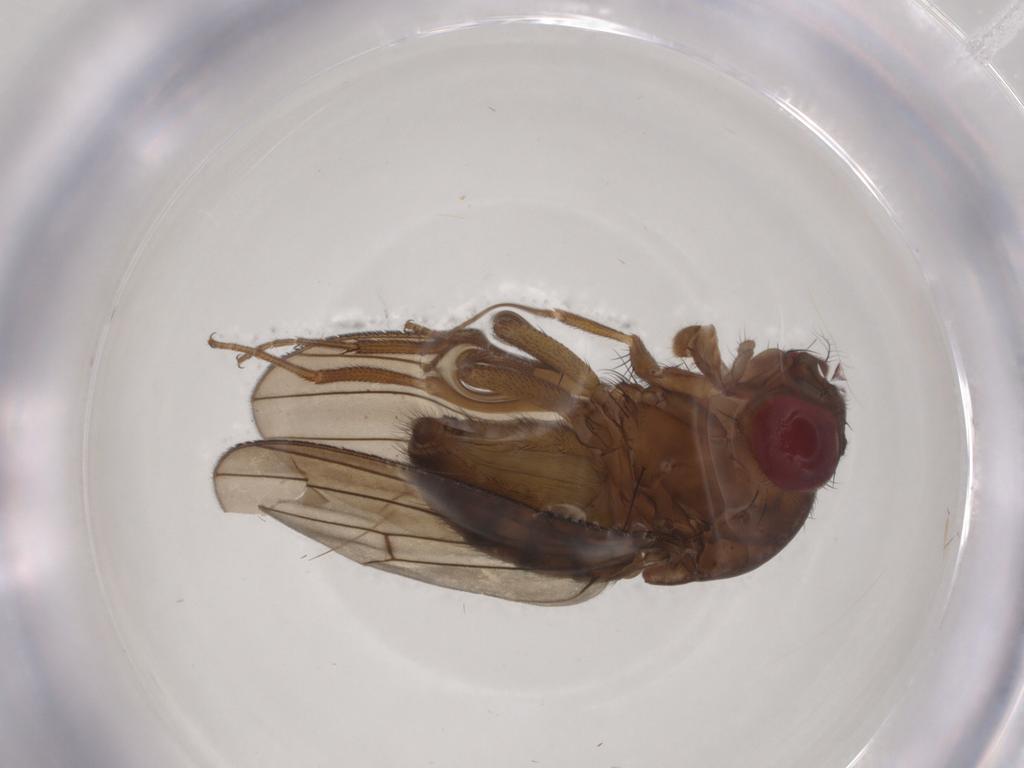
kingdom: Animalia
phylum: Arthropoda
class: Insecta
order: Diptera
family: Drosophilidae
